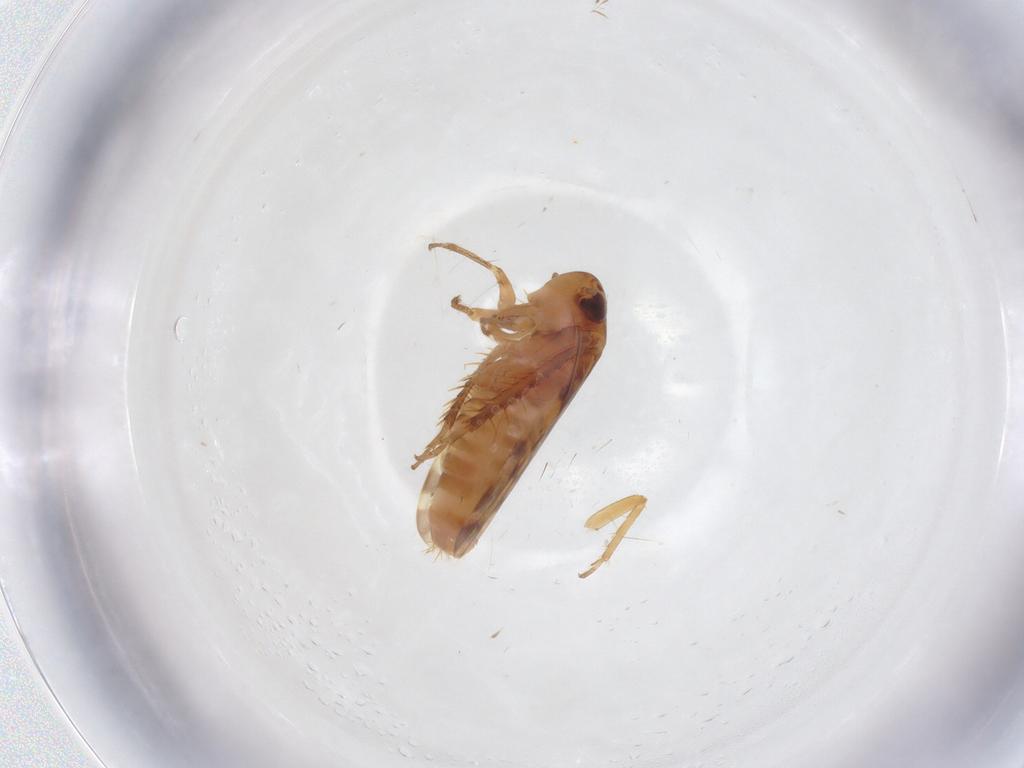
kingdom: Animalia
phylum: Arthropoda
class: Insecta
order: Hemiptera
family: Cicadellidae
